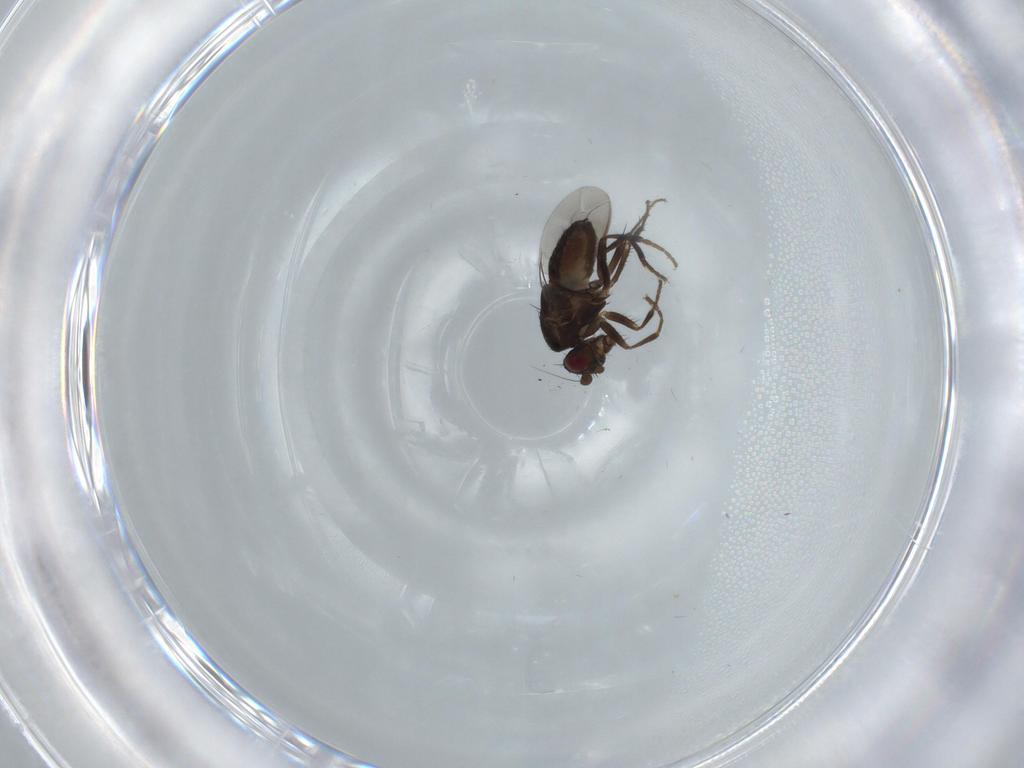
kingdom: Animalia
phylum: Arthropoda
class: Insecta
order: Diptera
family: Sphaeroceridae
